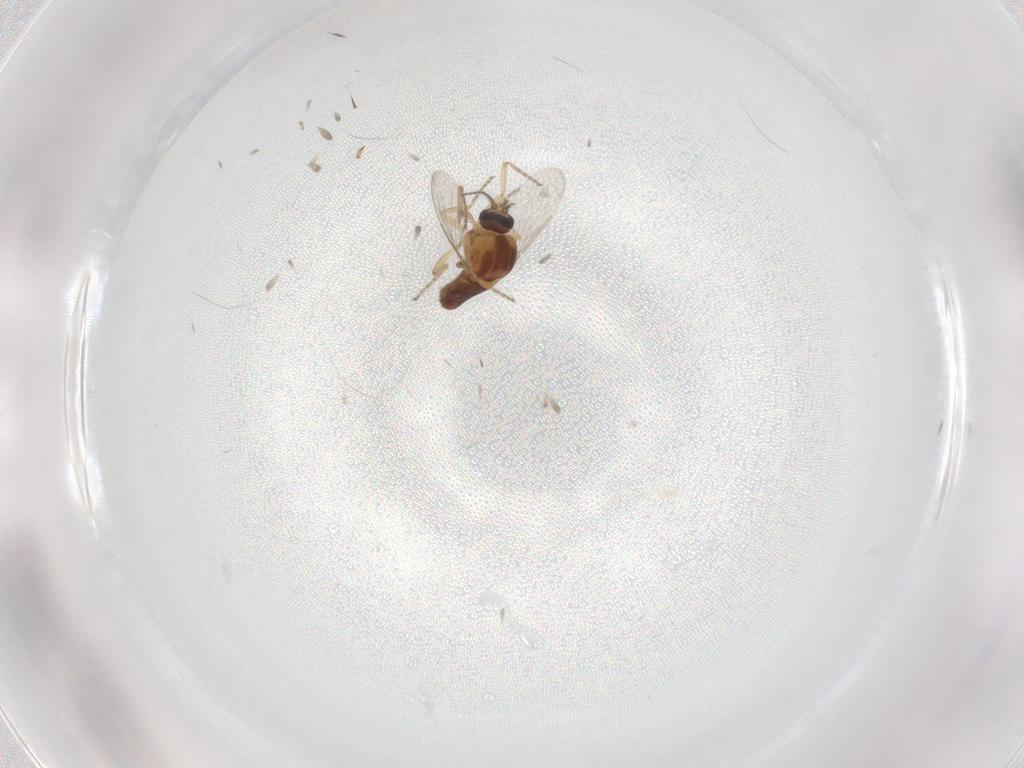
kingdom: Animalia
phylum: Arthropoda
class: Insecta
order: Diptera
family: Ceratopogonidae
